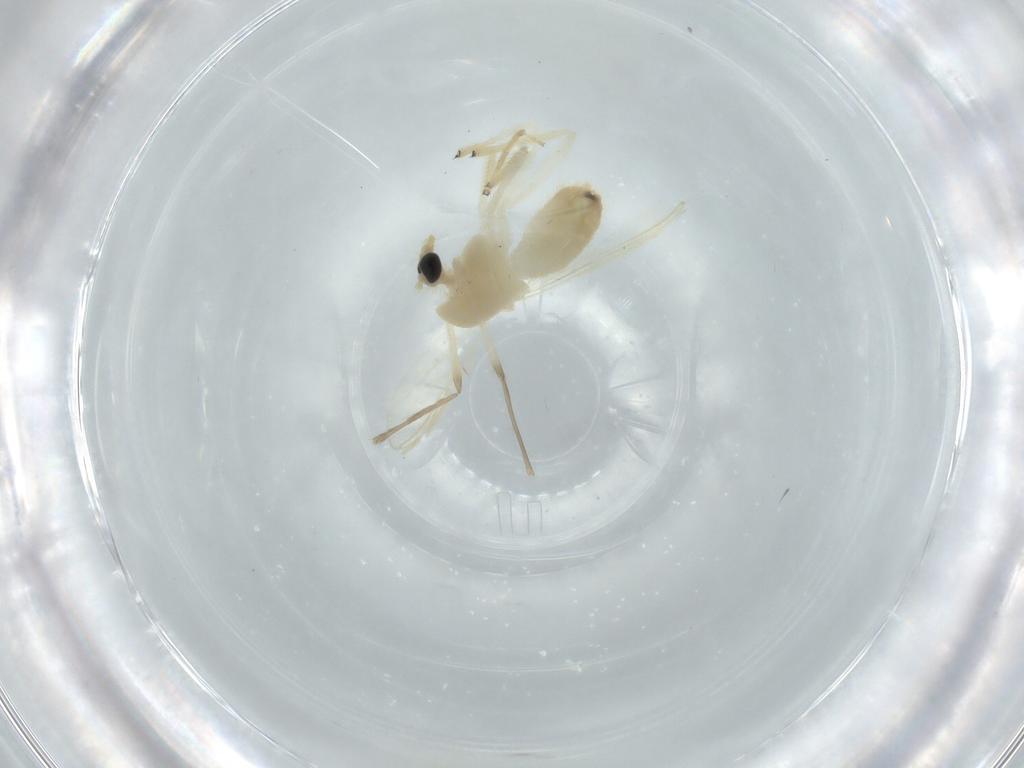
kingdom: Animalia
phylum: Arthropoda
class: Insecta
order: Diptera
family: Chironomidae
